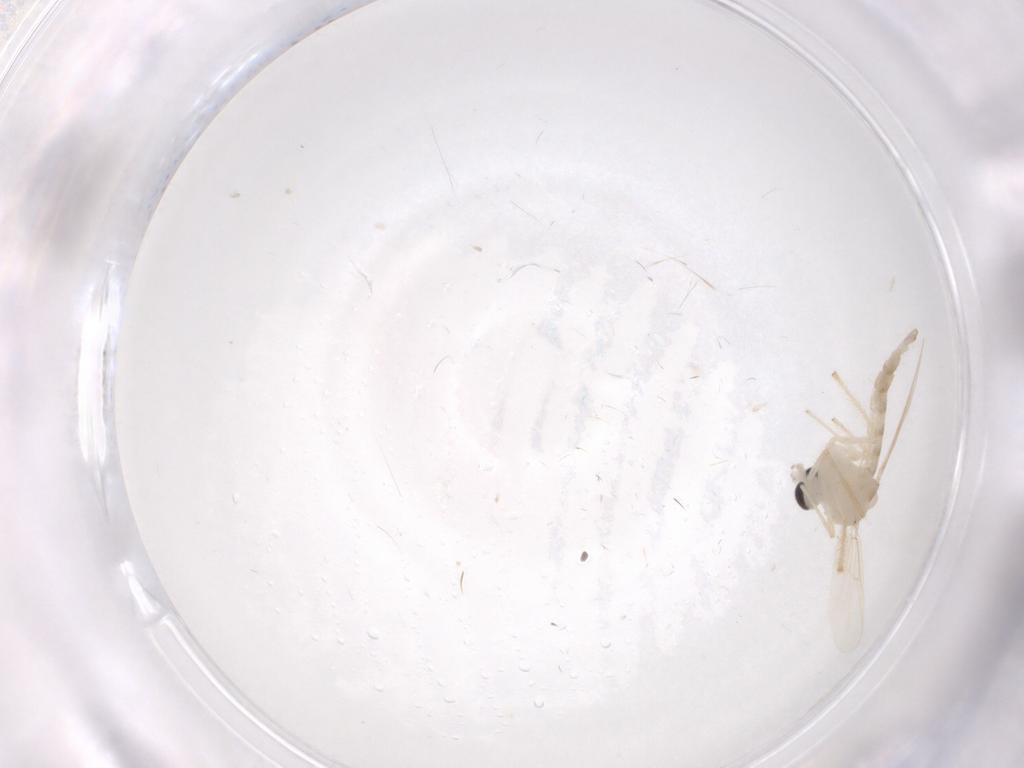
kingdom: Animalia
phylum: Arthropoda
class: Insecta
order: Diptera
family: Chironomidae
